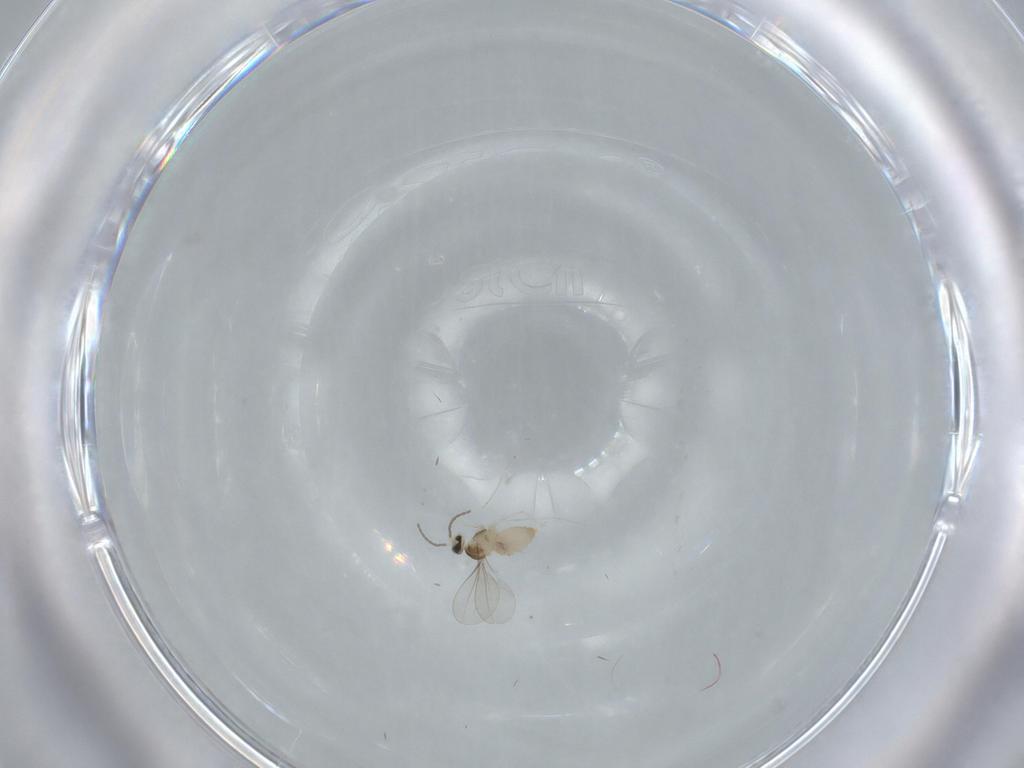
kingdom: Animalia
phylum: Arthropoda
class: Insecta
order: Diptera
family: Cecidomyiidae
